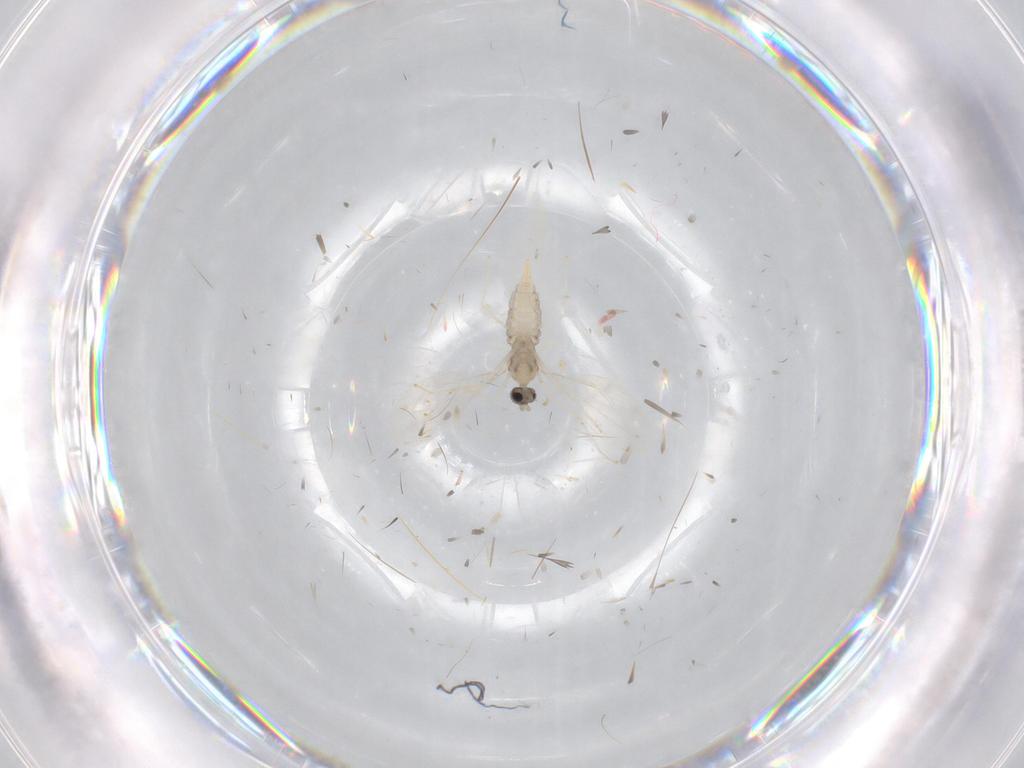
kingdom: Animalia
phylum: Arthropoda
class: Insecta
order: Diptera
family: Cecidomyiidae
